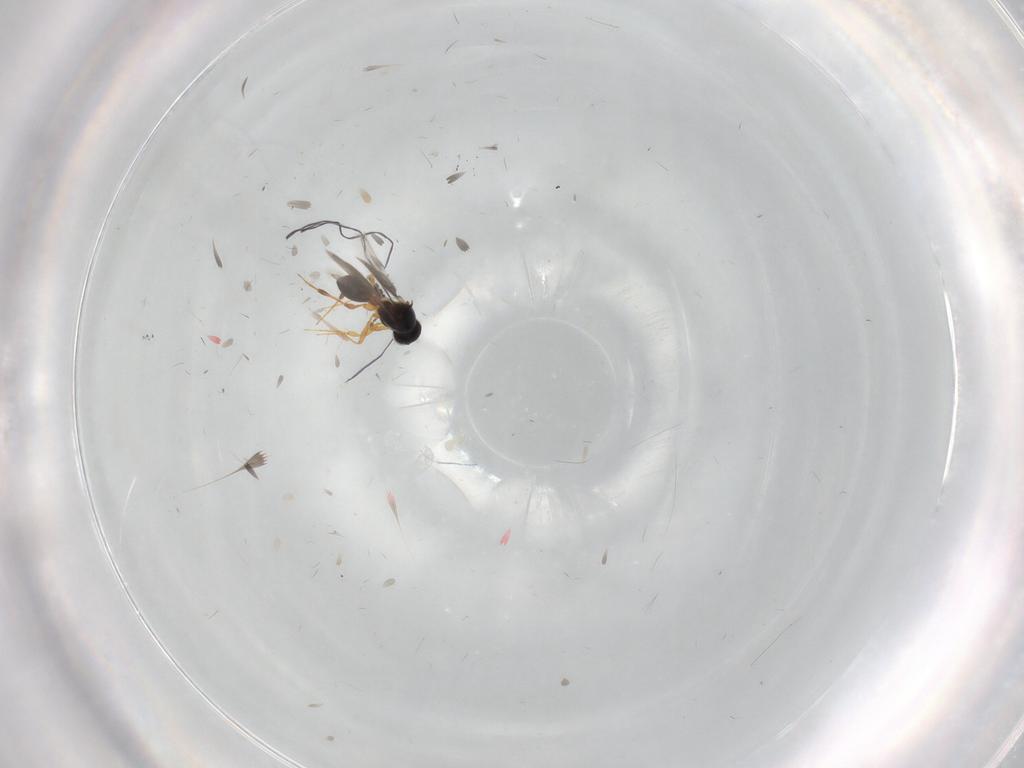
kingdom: Animalia
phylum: Arthropoda
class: Insecta
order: Hymenoptera
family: Platygastridae
